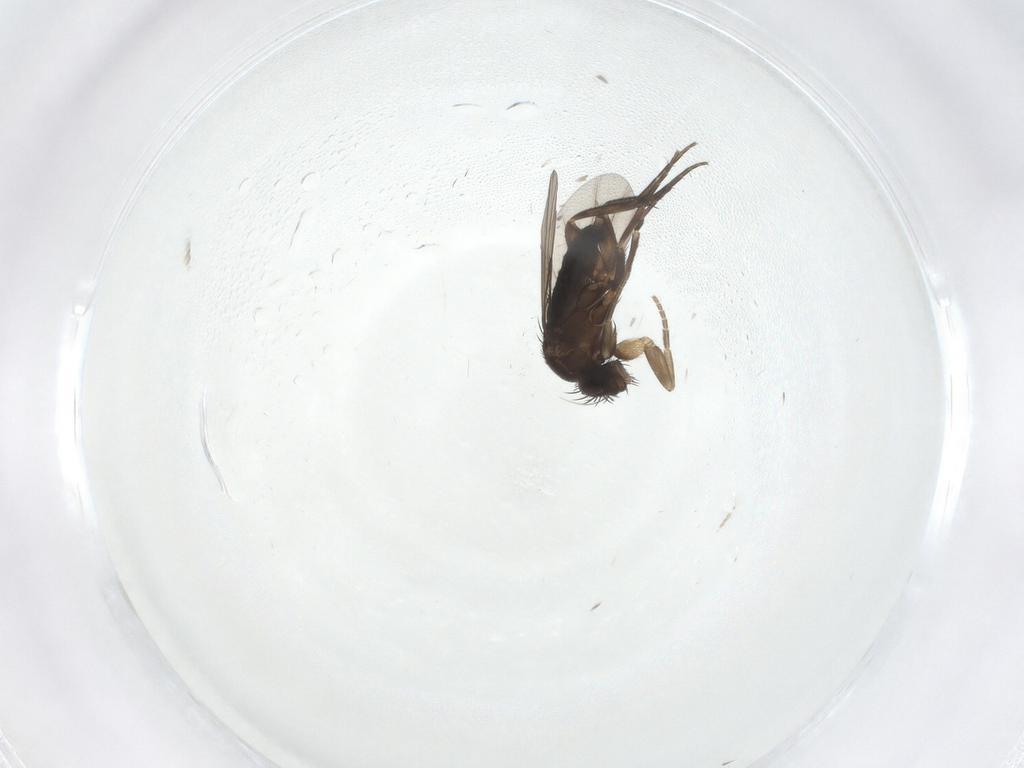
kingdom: Animalia
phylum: Arthropoda
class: Insecta
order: Diptera
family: Phoridae
